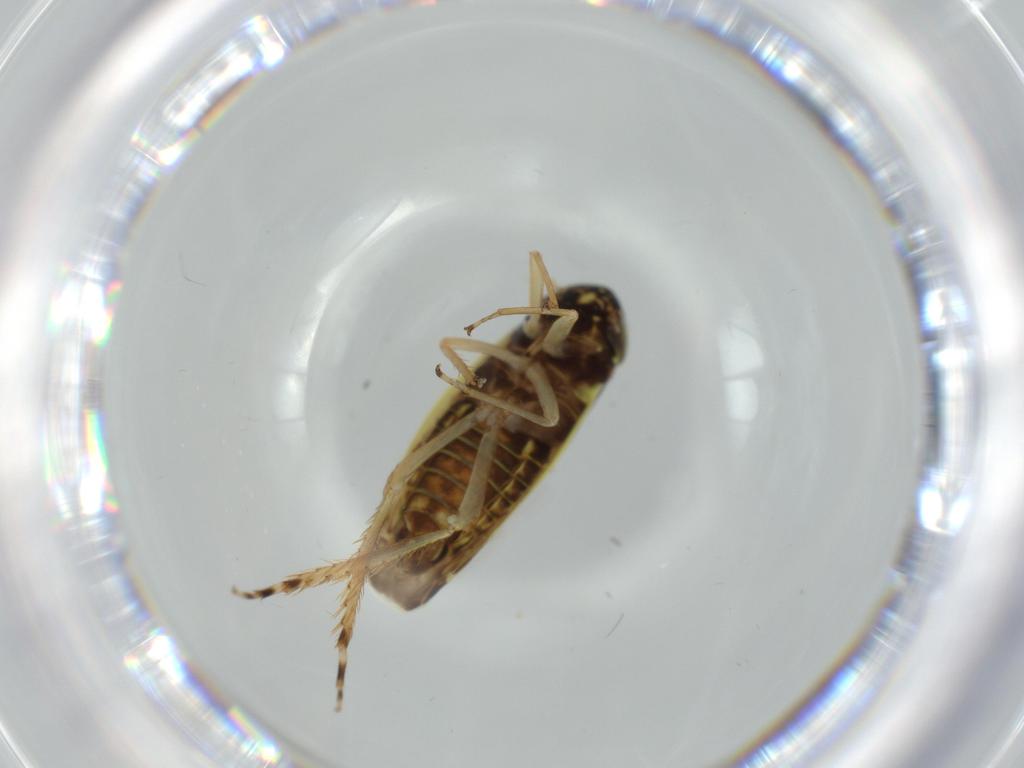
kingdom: Animalia
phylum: Arthropoda
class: Insecta
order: Hemiptera
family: Cicadellidae
